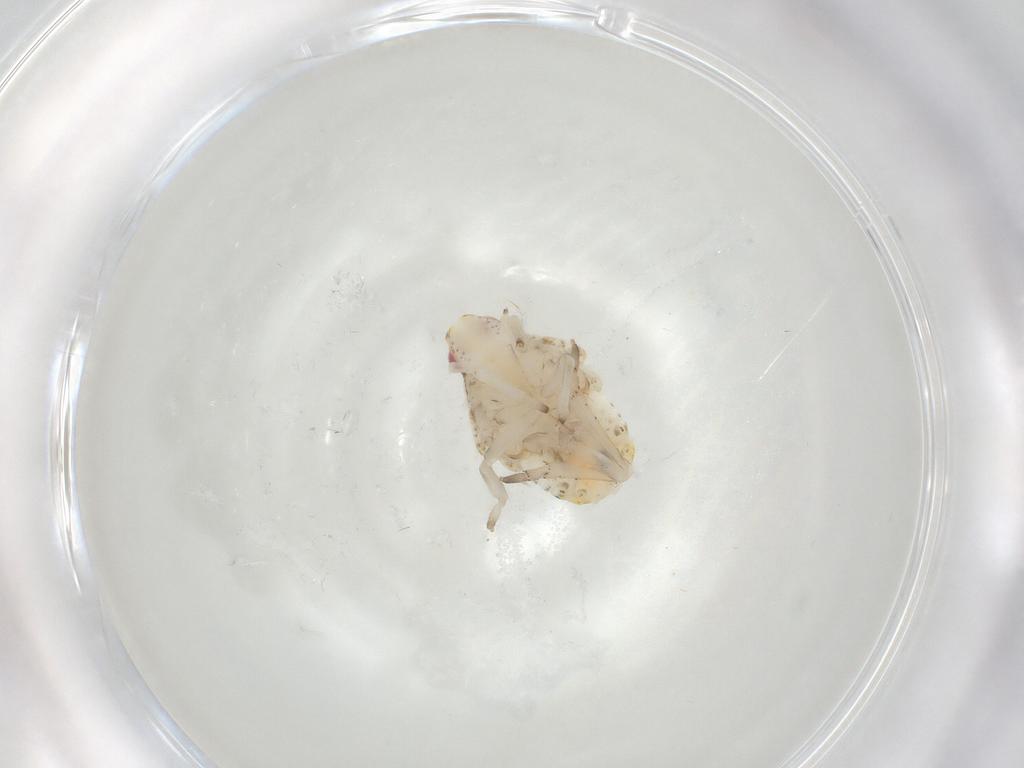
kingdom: Animalia
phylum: Arthropoda
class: Insecta
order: Hemiptera
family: Fulgoroidea_incertae_sedis
